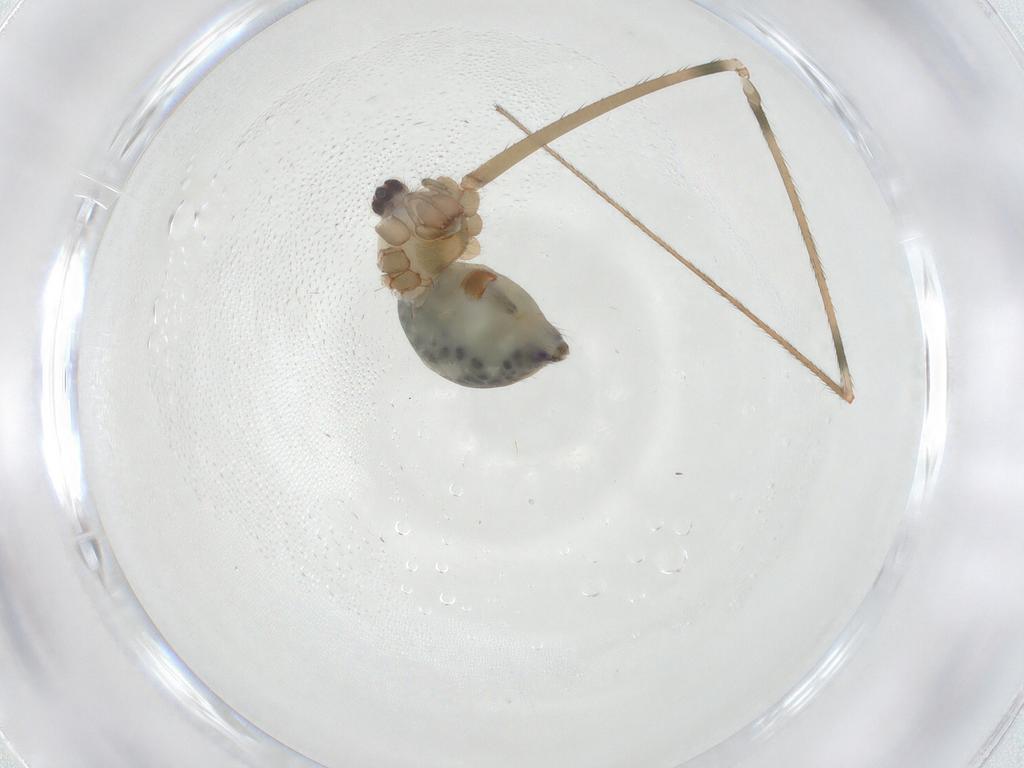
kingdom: Animalia
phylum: Arthropoda
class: Arachnida
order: Araneae
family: Pholcidae
